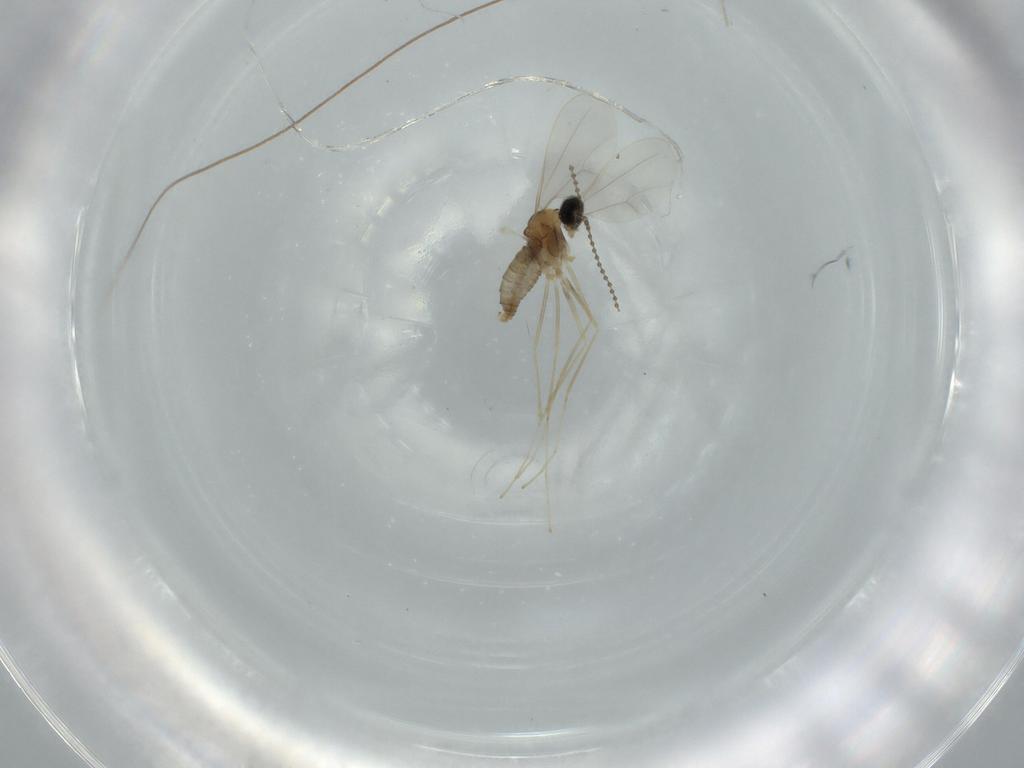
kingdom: Animalia
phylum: Arthropoda
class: Insecta
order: Diptera
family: Cecidomyiidae
